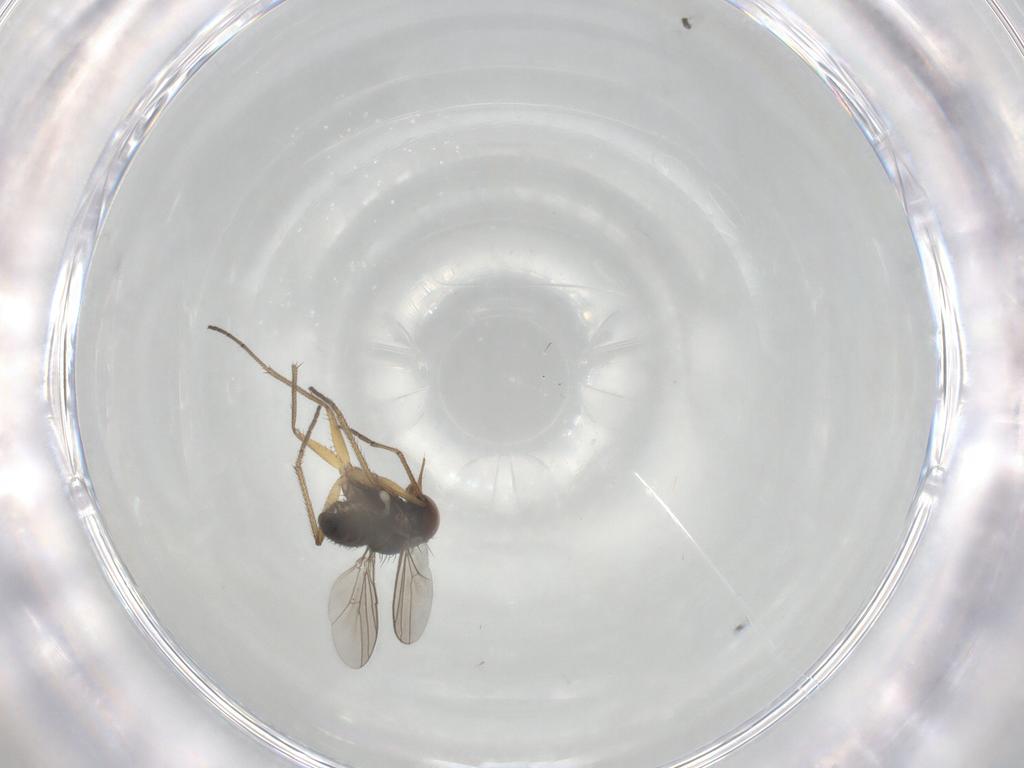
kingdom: Animalia
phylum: Arthropoda
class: Insecta
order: Diptera
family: Dolichopodidae
